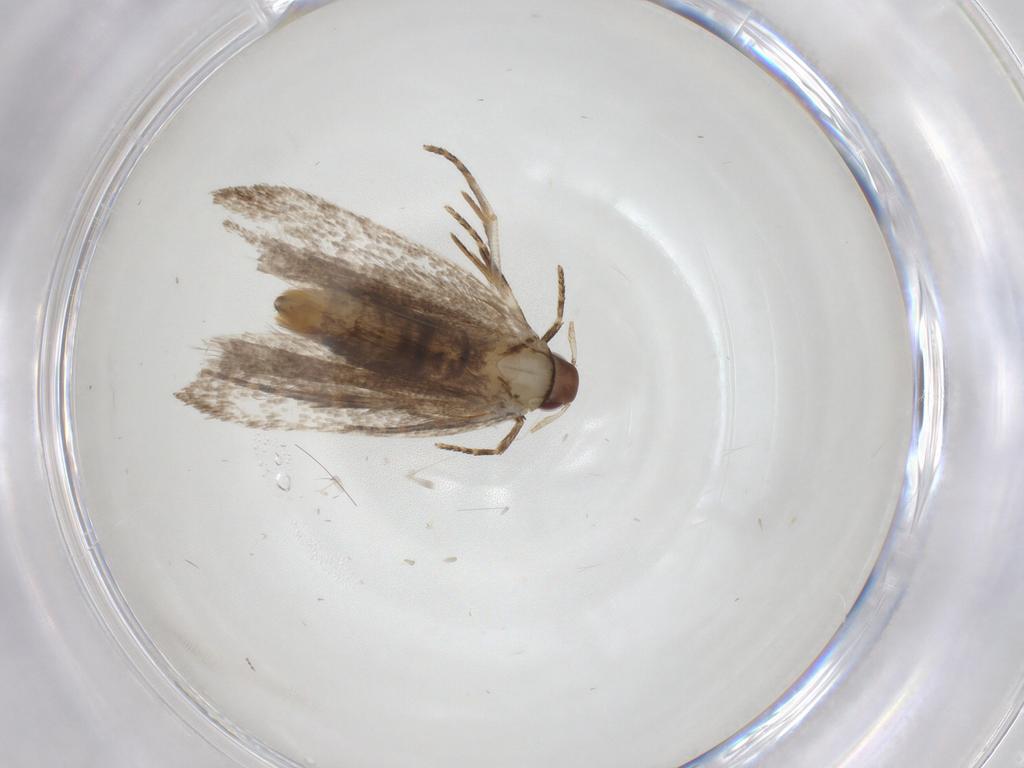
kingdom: Animalia
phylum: Arthropoda
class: Insecta
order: Lepidoptera
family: Gelechiidae
